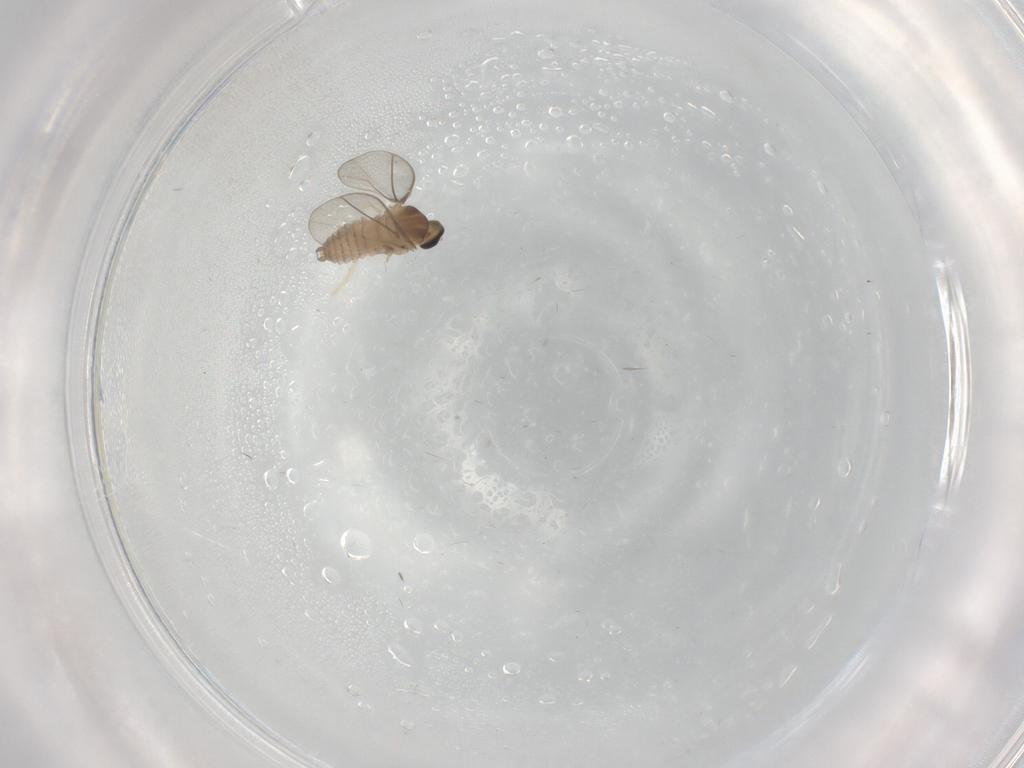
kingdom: Animalia
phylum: Arthropoda
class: Insecta
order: Diptera
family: Cecidomyiidae
